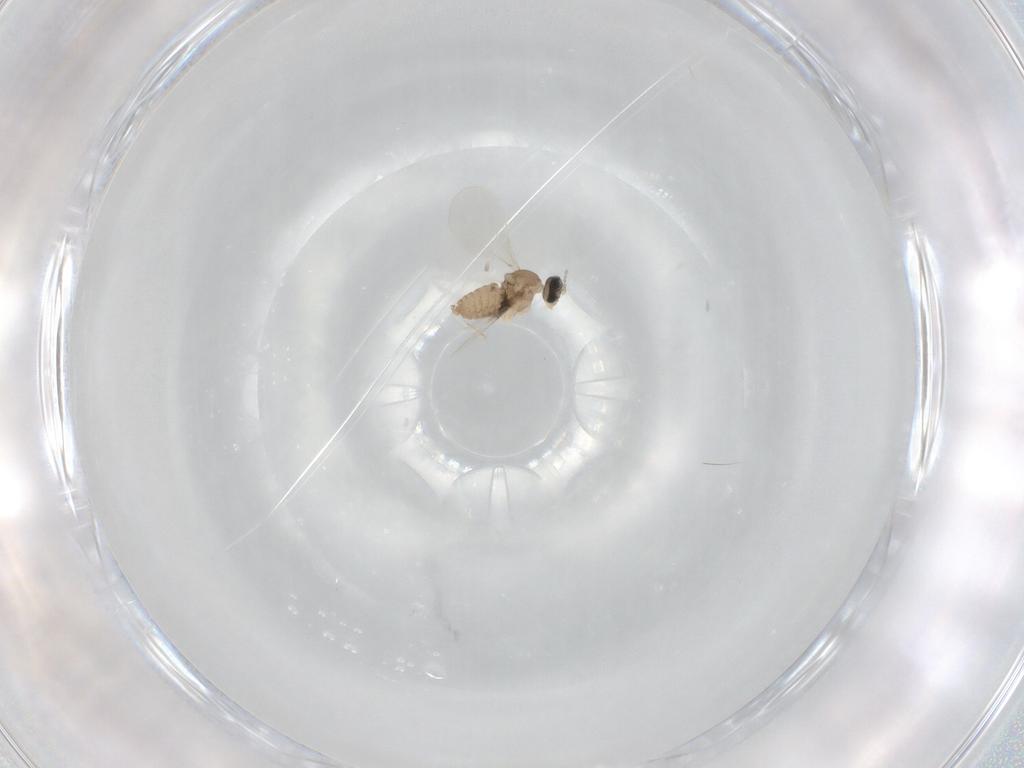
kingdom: Animalia
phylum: Arthropoda
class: Insecta
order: Diptera
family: Cecidomyiidae
